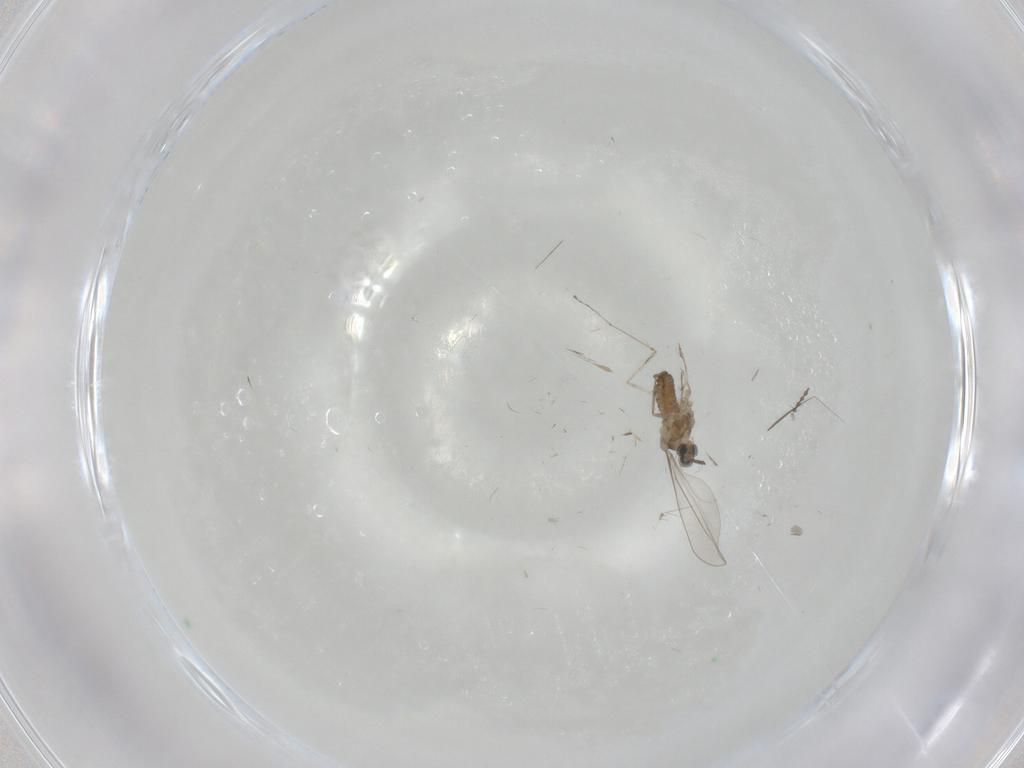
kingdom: Animalia
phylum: Arthropoda
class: Insecta
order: Diptera
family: Cecidomyiidae
